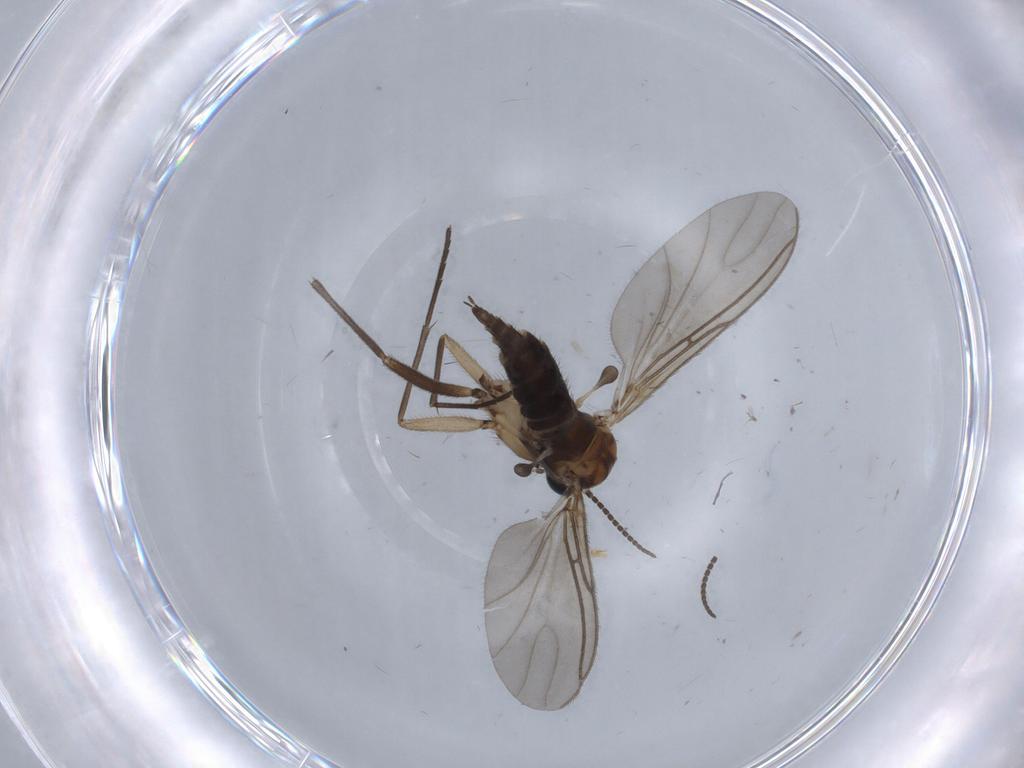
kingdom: Animalia
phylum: Arthropoda
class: Insecta
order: Diptera
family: Sciaridae
